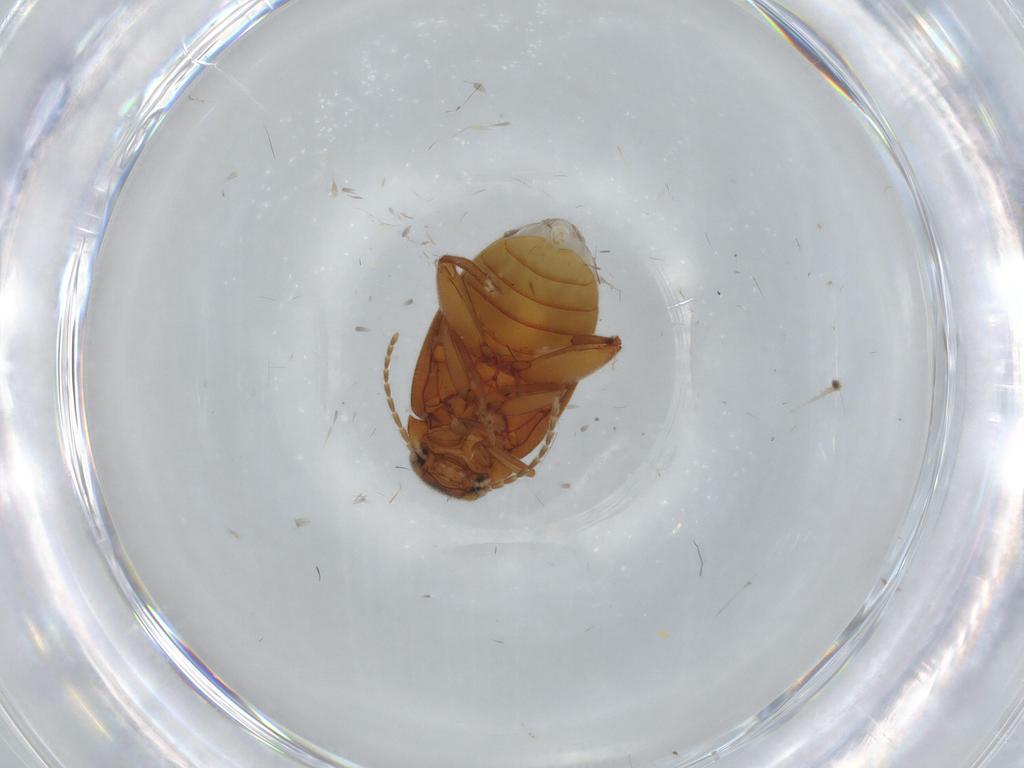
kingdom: Animalia
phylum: Arthropoda
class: Insecta
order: Coleoptera
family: Scirtidae
